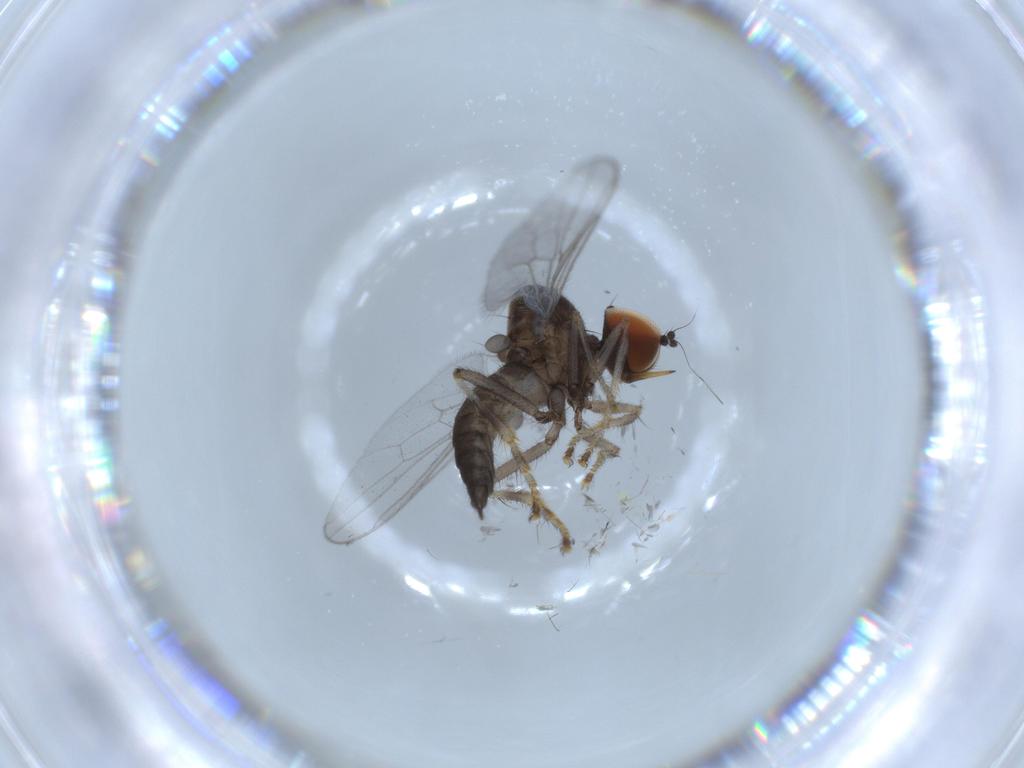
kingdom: Animalia
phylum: Arthropoda
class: Insecta
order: Diptera
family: Hybotidae
